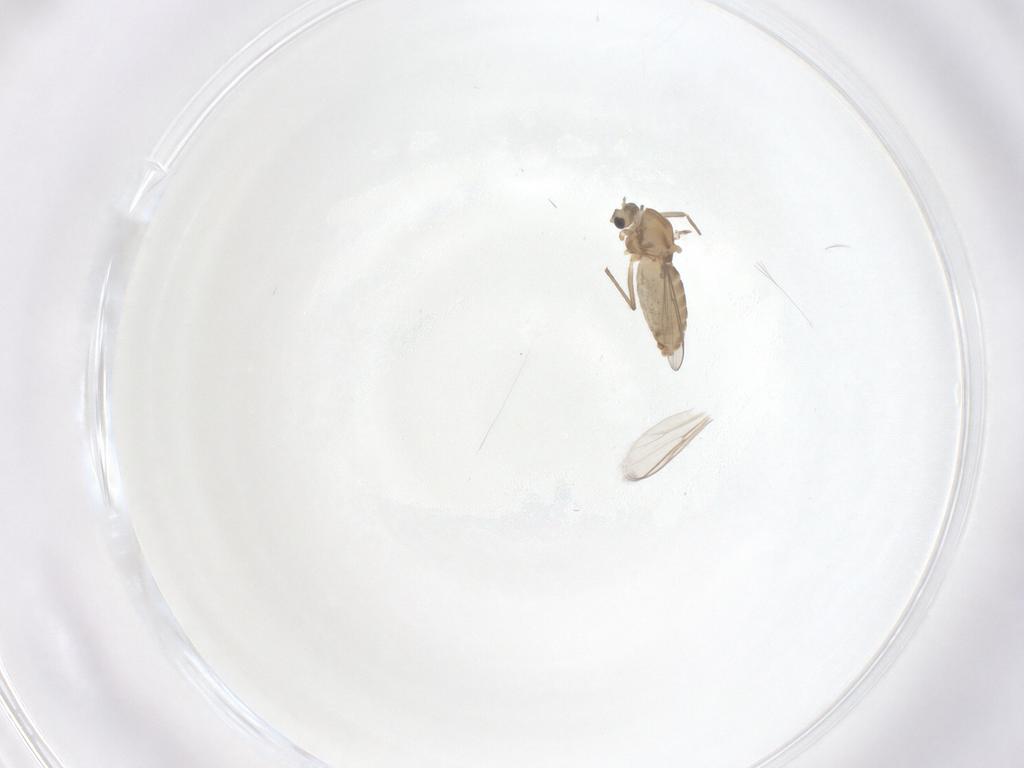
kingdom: Animalia
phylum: Arthropoda
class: Insecta
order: Diptera
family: Chironomidae
